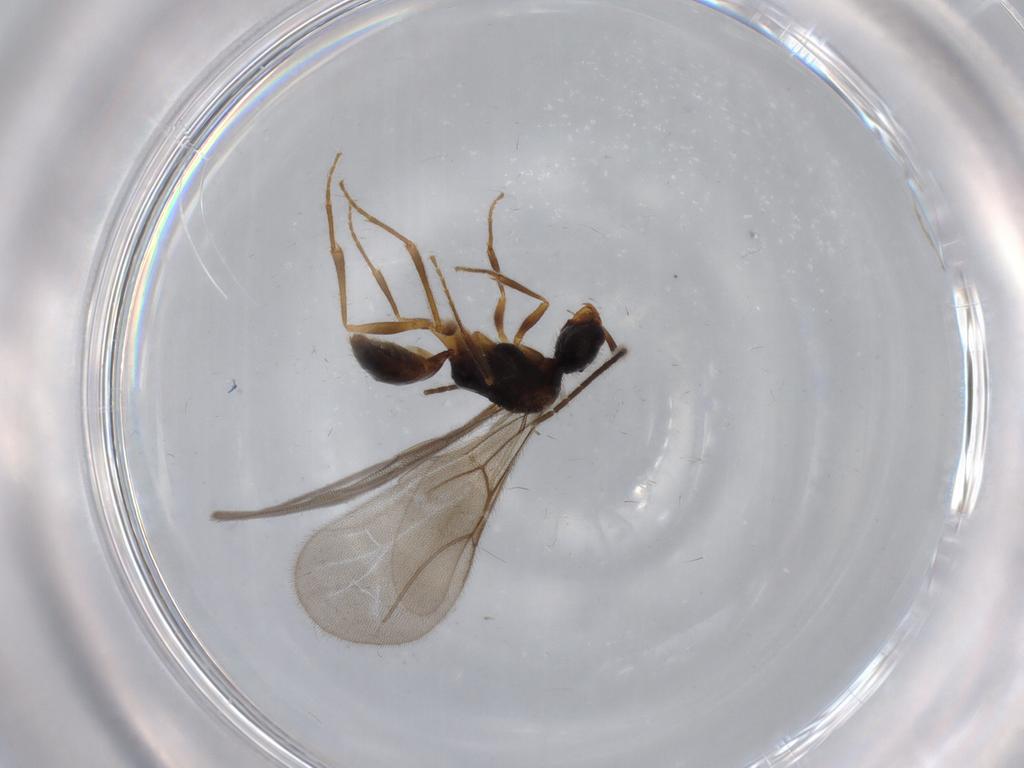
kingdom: Animalia
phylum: Arthropoda
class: Insecta
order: Hymenoptera
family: Bethylidae
